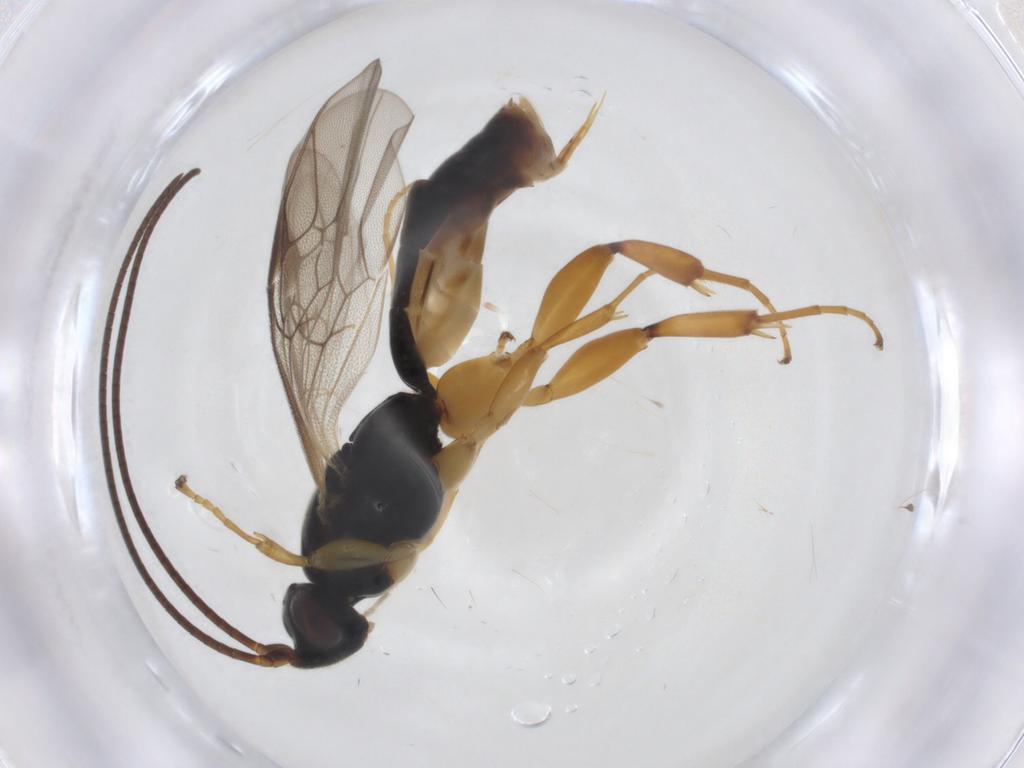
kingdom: Animalia
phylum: Arthropoda
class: Insecta
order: Hymenoptera
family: Ichneumonidae
